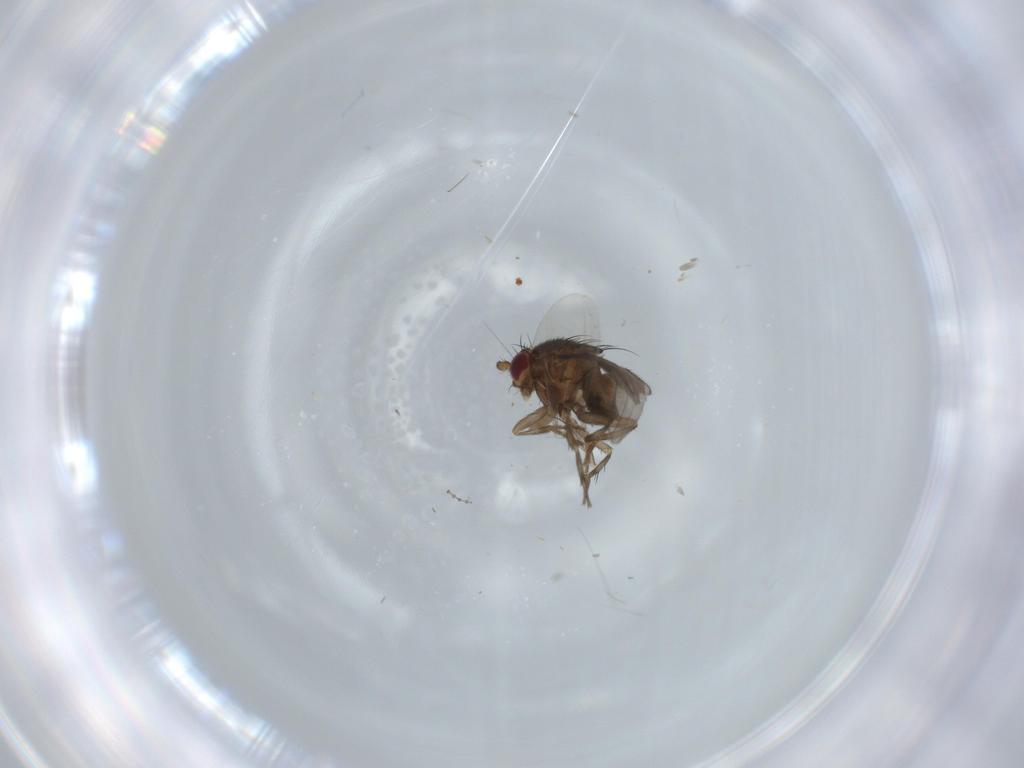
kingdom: Animalia
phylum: Arthropoda
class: Insecta
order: Diptera
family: Sphaeroceridae
